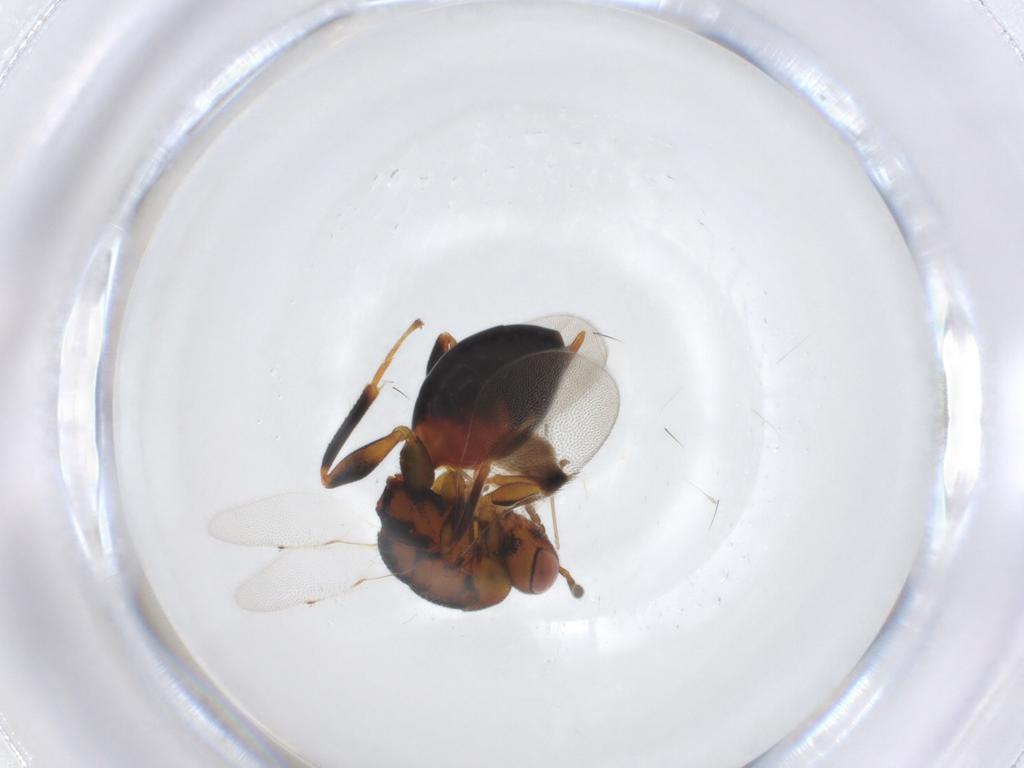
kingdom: Animalia
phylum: Arthropoda
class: Insecta
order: Hymenoptera
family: Eurytomidae
